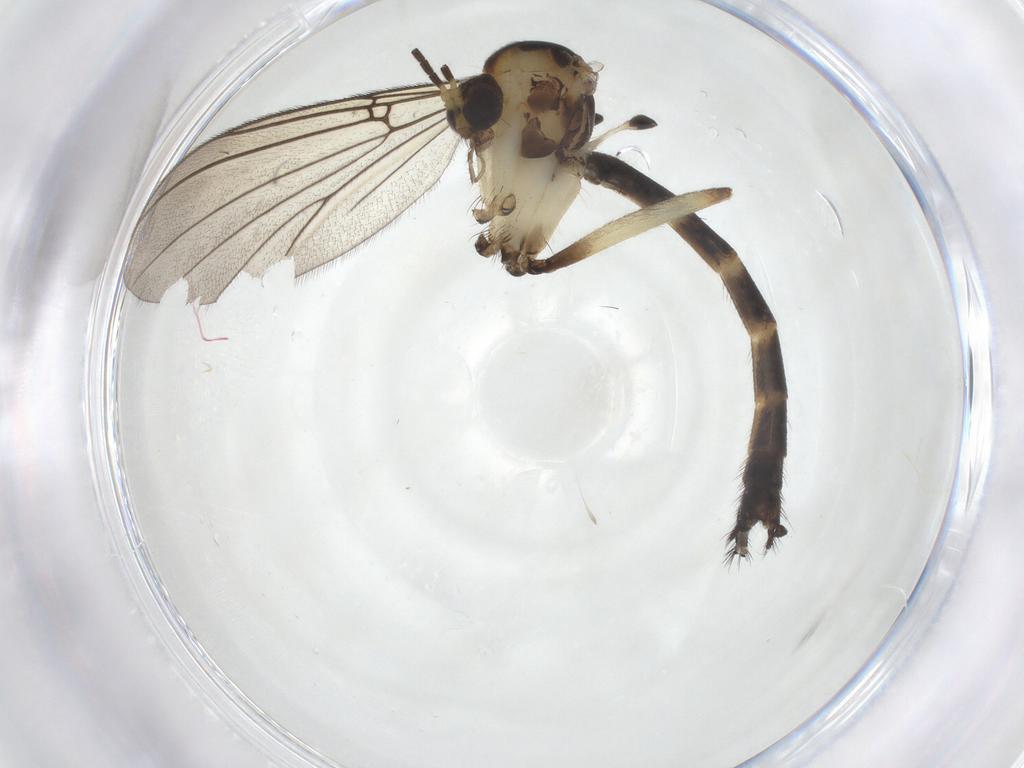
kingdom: Animalia
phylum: Arthropoda
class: Insecta
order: Diptera
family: Mycetophilidae
